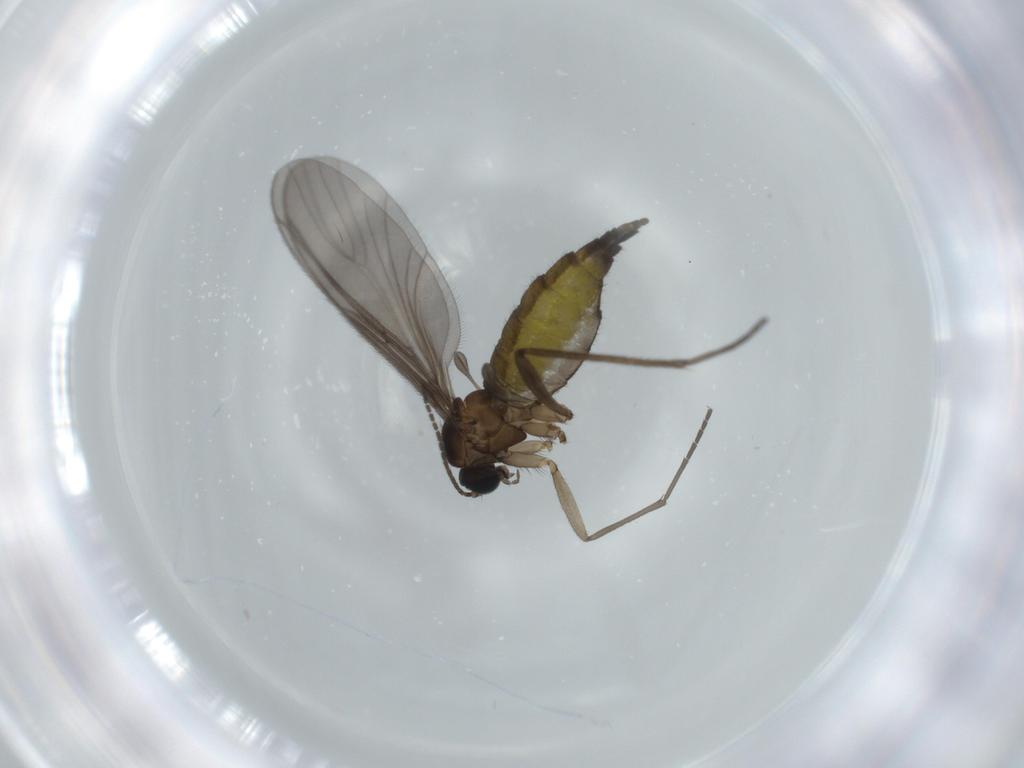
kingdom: Animalia
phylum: Arthropoda
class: Insecta
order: Diptera
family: Sciaridae
